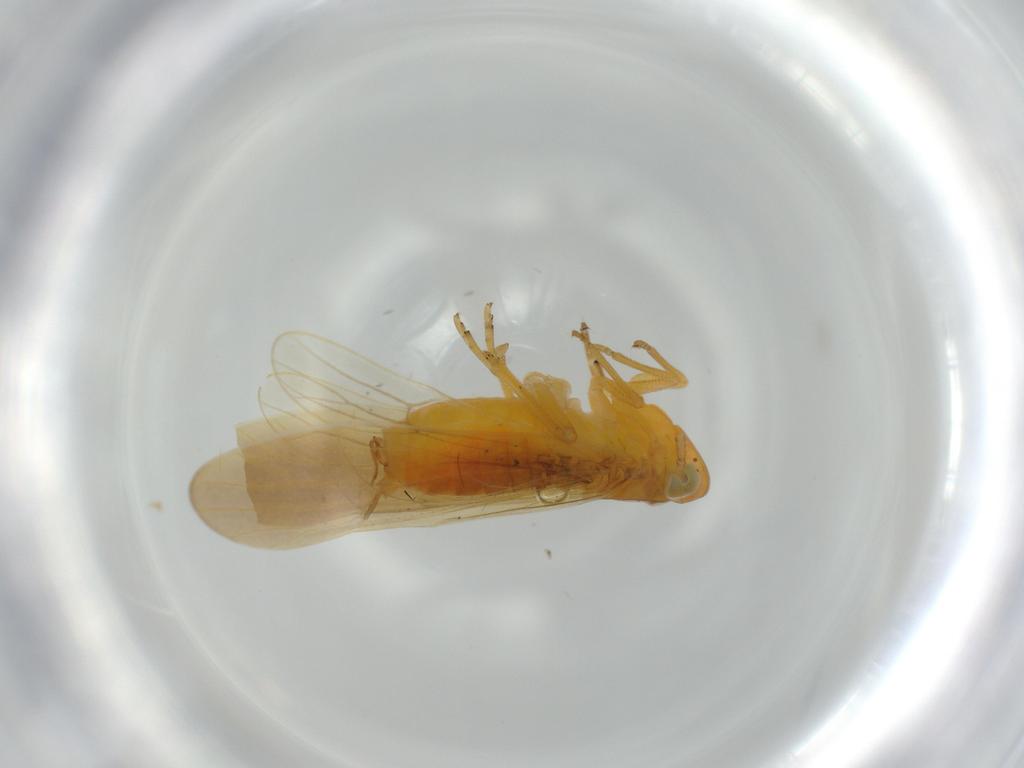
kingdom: Animalia
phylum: Arthropoda
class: Insecta
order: Hemiptera
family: Delphacidae
